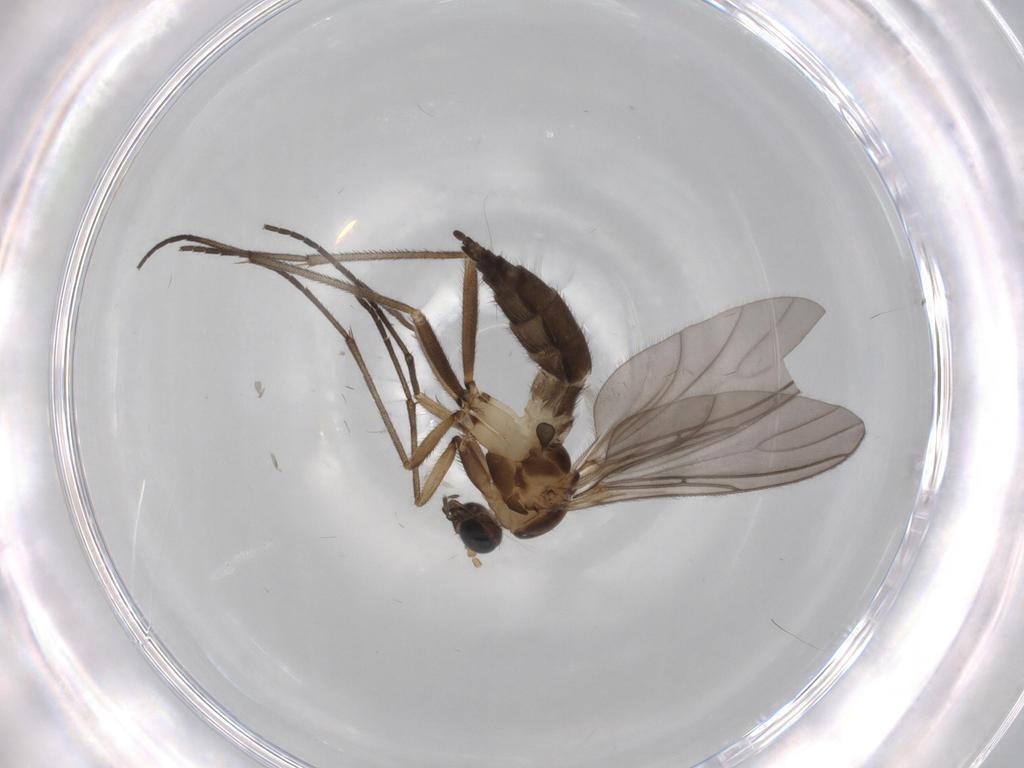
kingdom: Animalia
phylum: Arthropoda
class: Insecta
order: Diptera
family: Sciaridae
